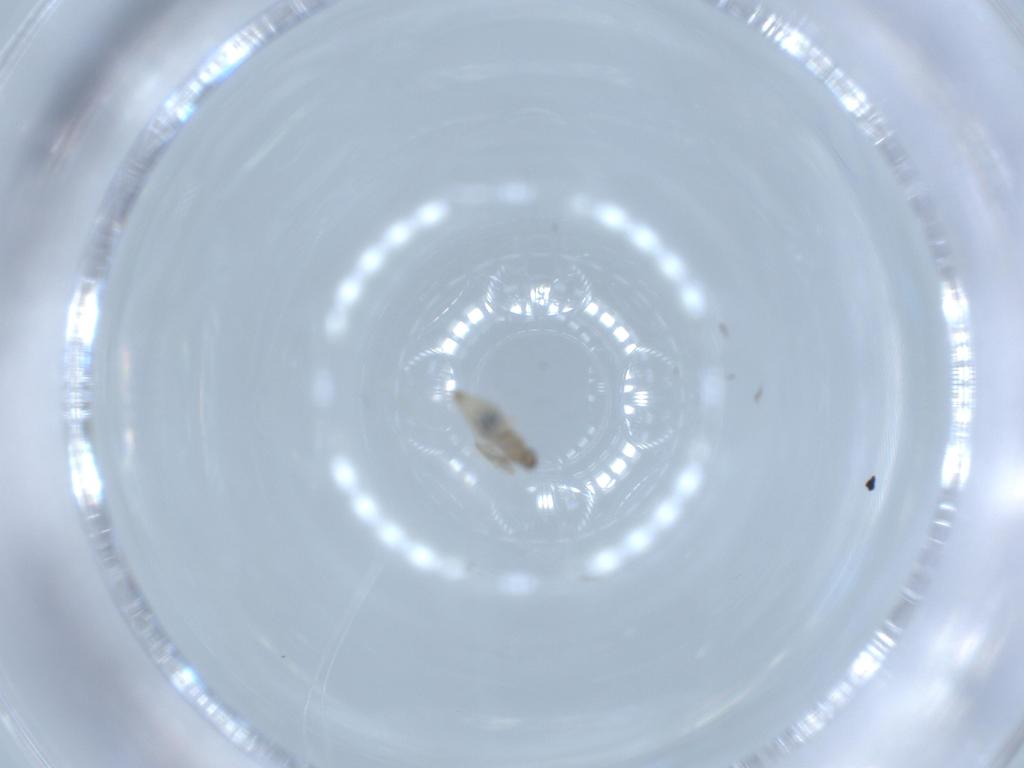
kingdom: Animalia
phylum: Arthropoda
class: Insecta
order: Diptera
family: Cecidomyiidae
